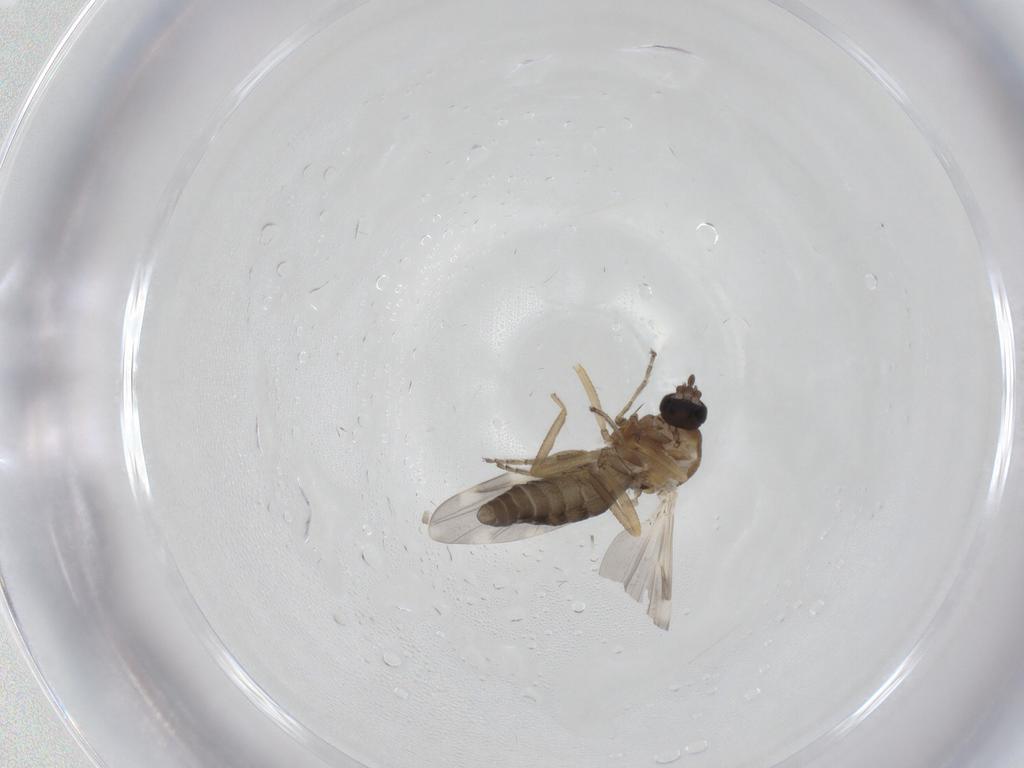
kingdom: Animalia
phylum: Arthropoda
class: Insecta
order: Diptera
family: Ceratopogonidae
